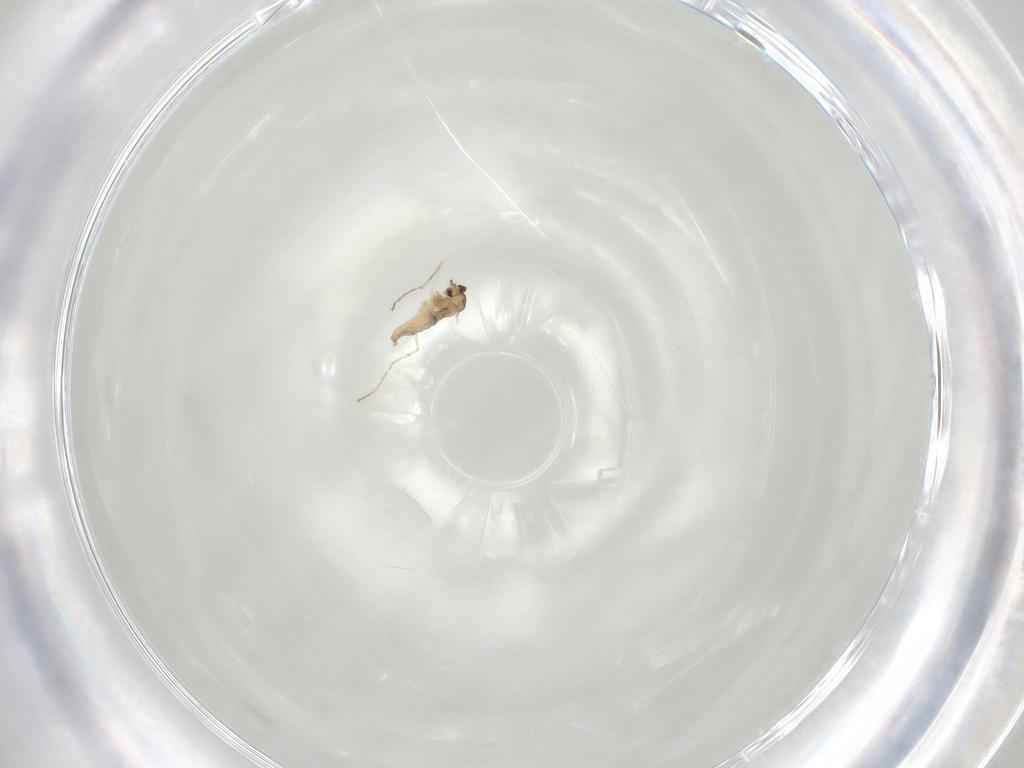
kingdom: Animalia
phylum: Arthropoda
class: Insecta
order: Diptera
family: Cecidomyiidae
